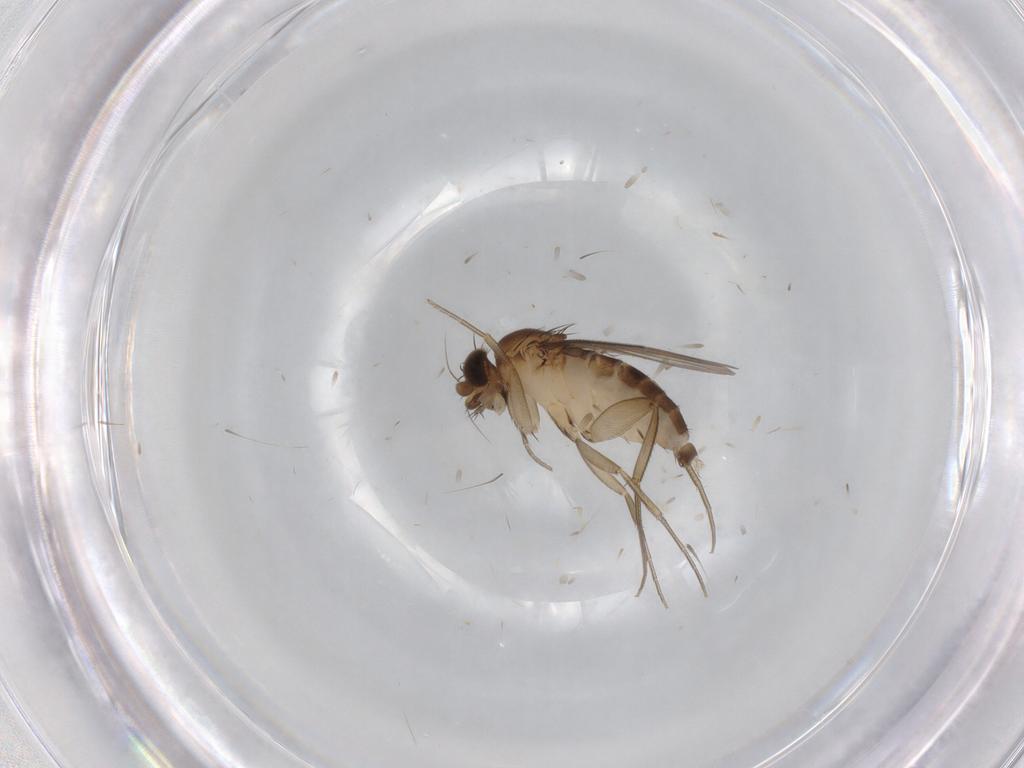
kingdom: Animalia
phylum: Arthropoda
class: Insecta
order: Diptera
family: Phoridae
